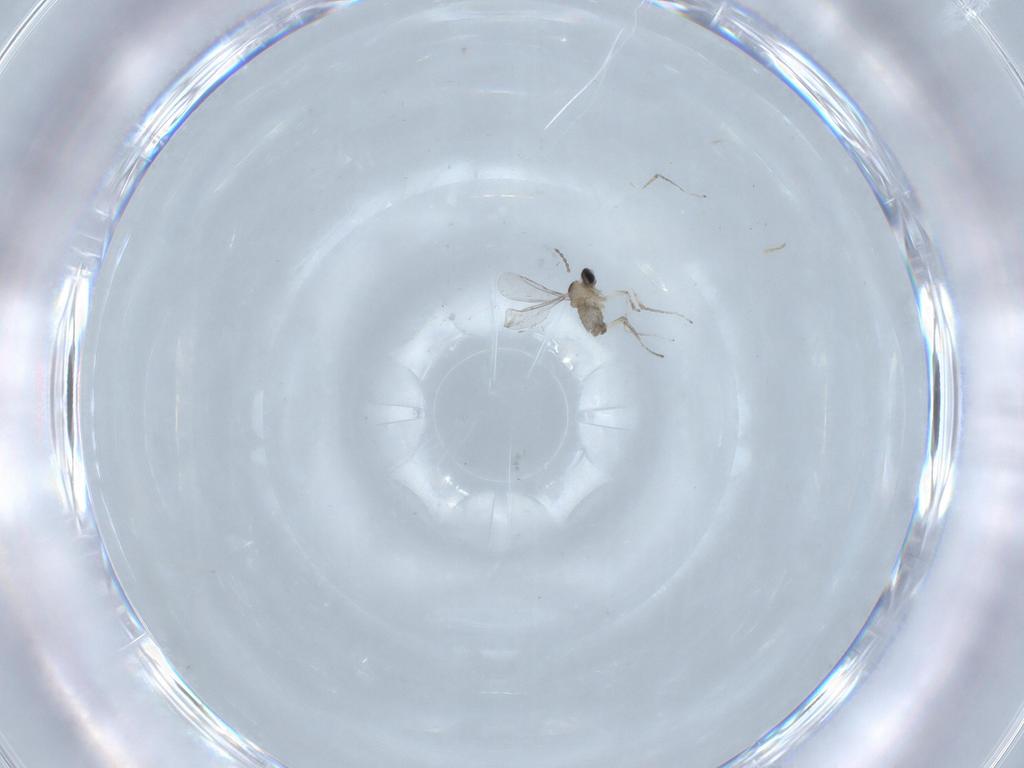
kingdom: Animalia
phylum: Arthropoda
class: Insecta
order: Diptera
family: Cecidomyiidae
